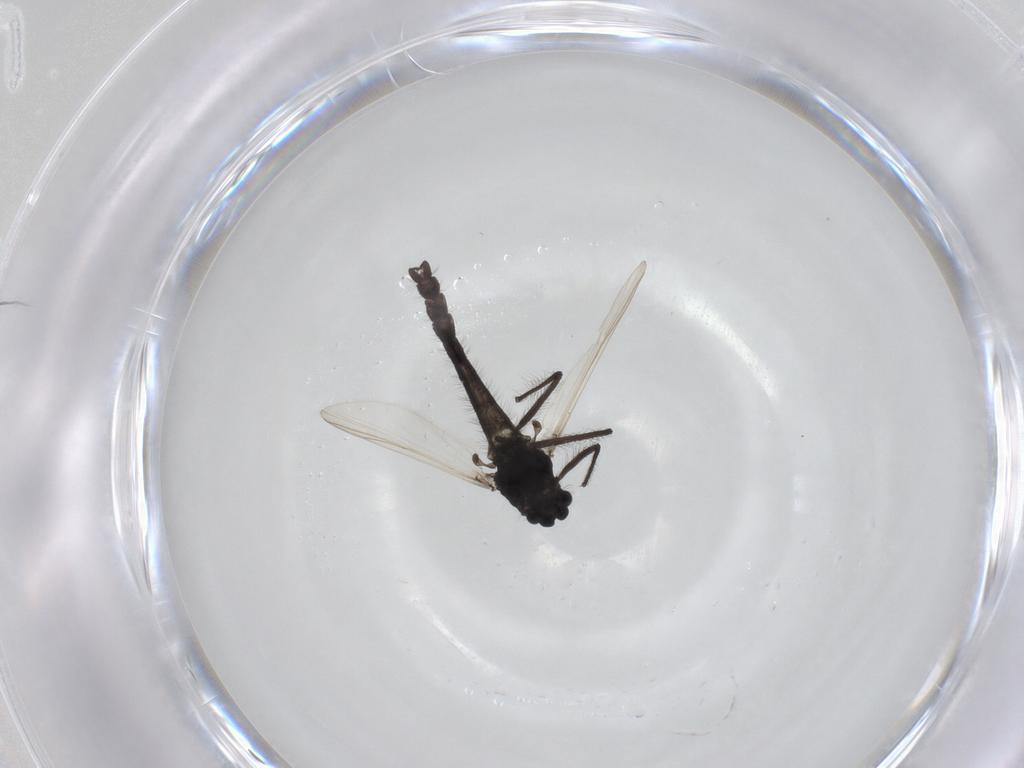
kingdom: Animalia
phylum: Arthropoda
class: Insecta
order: Diptera
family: Chironomidae
